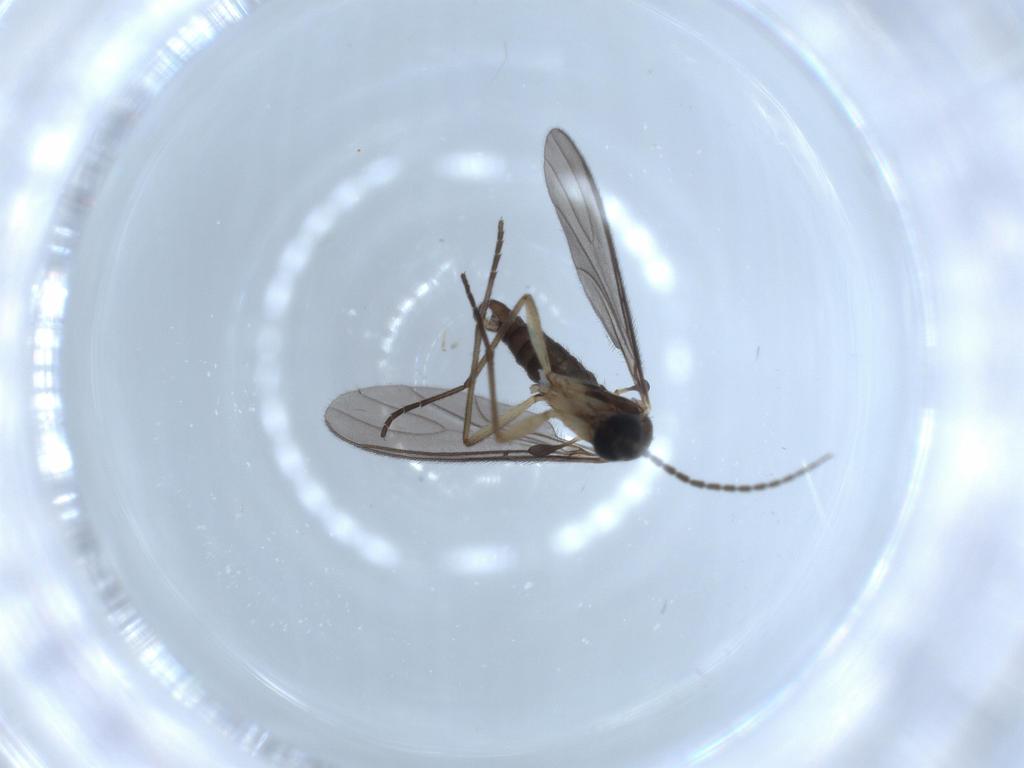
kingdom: Animalia
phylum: Arthropoda
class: Insecta
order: Diptera
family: Sciaridae
